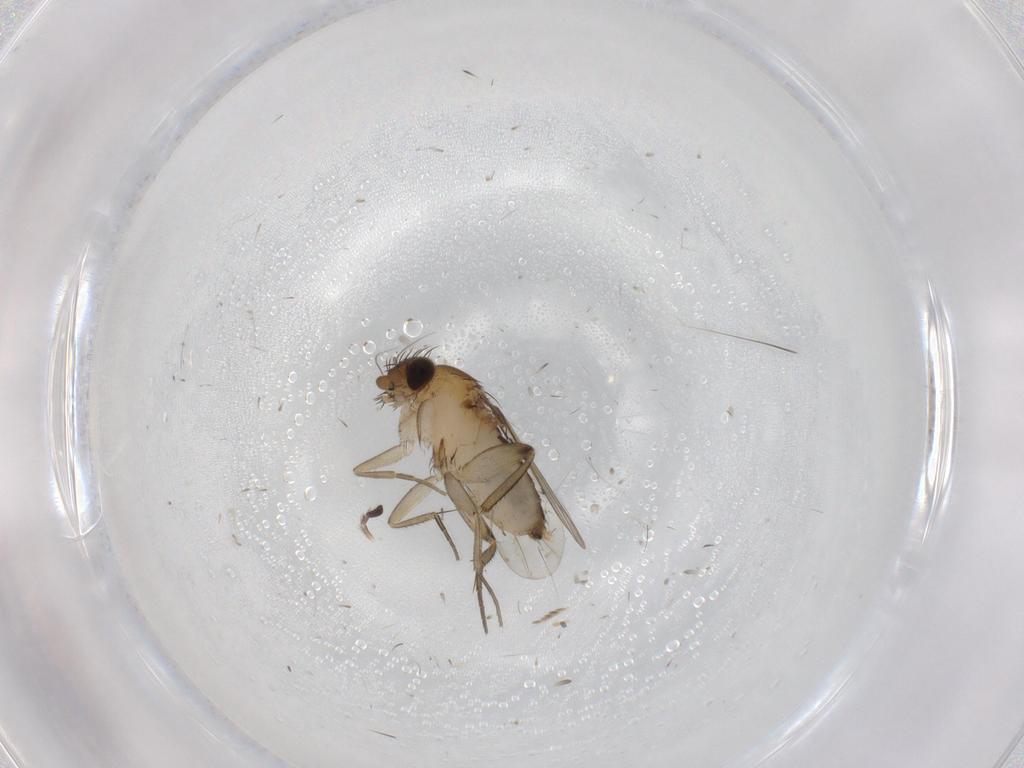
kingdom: Animalia
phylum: Arthropoda
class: Insecta
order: Diptera
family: Phoridae
